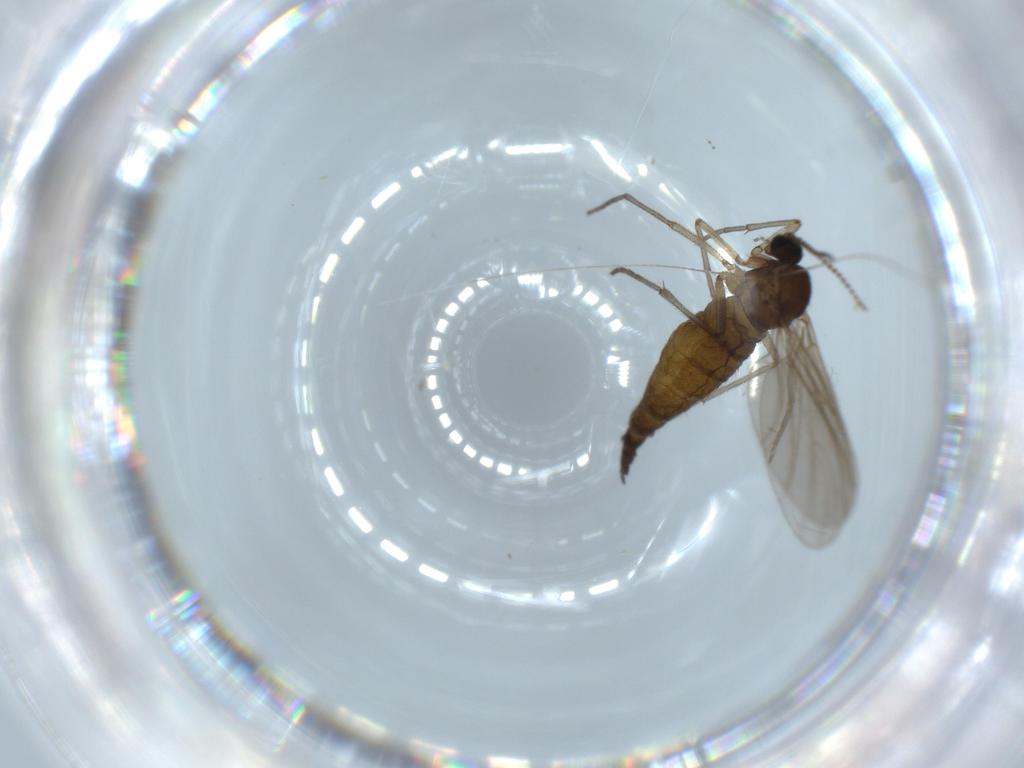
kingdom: Animalia
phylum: Arthropoda
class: Insecta
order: Diptera
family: Sciaridae
